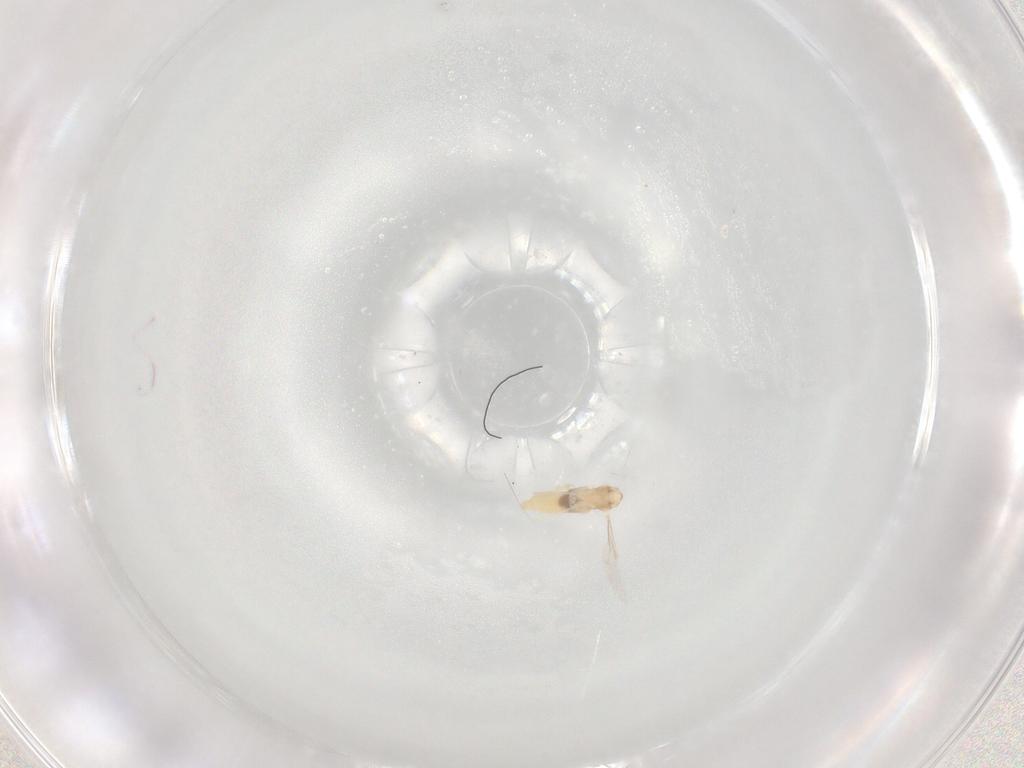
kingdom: Animalia
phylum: Arthropoda
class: Insecta
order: Diptera
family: Cecidomyiidae
